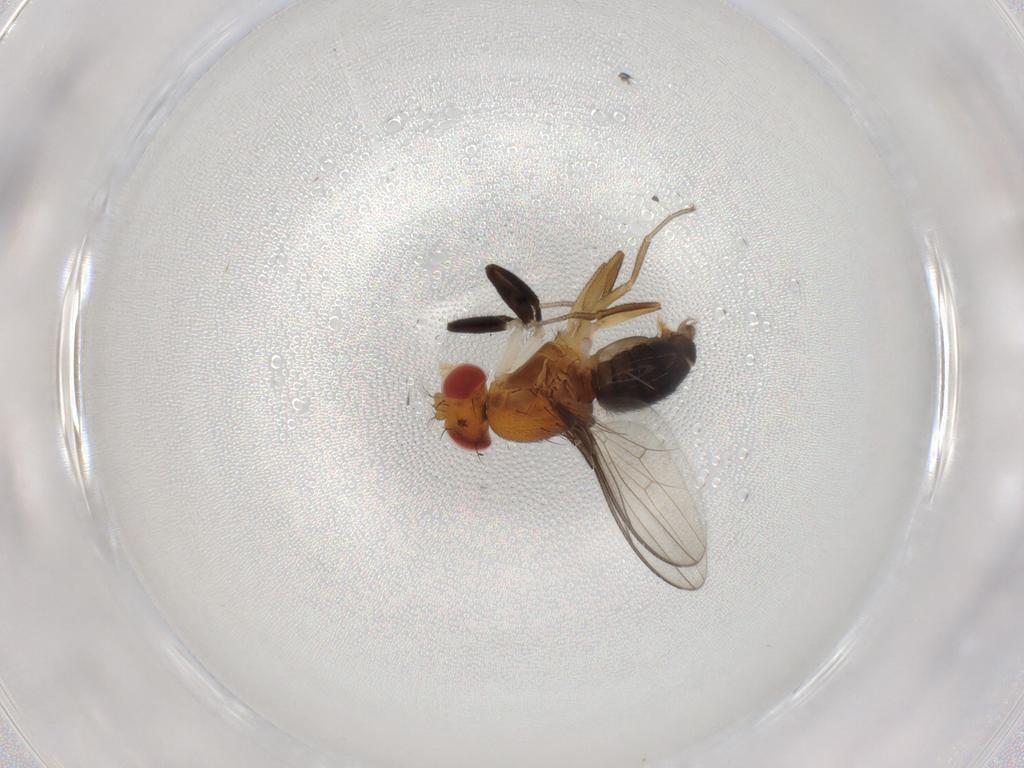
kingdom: Animalia
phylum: Arthropoda
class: Insecta
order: Diptera
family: Drosophilidae
